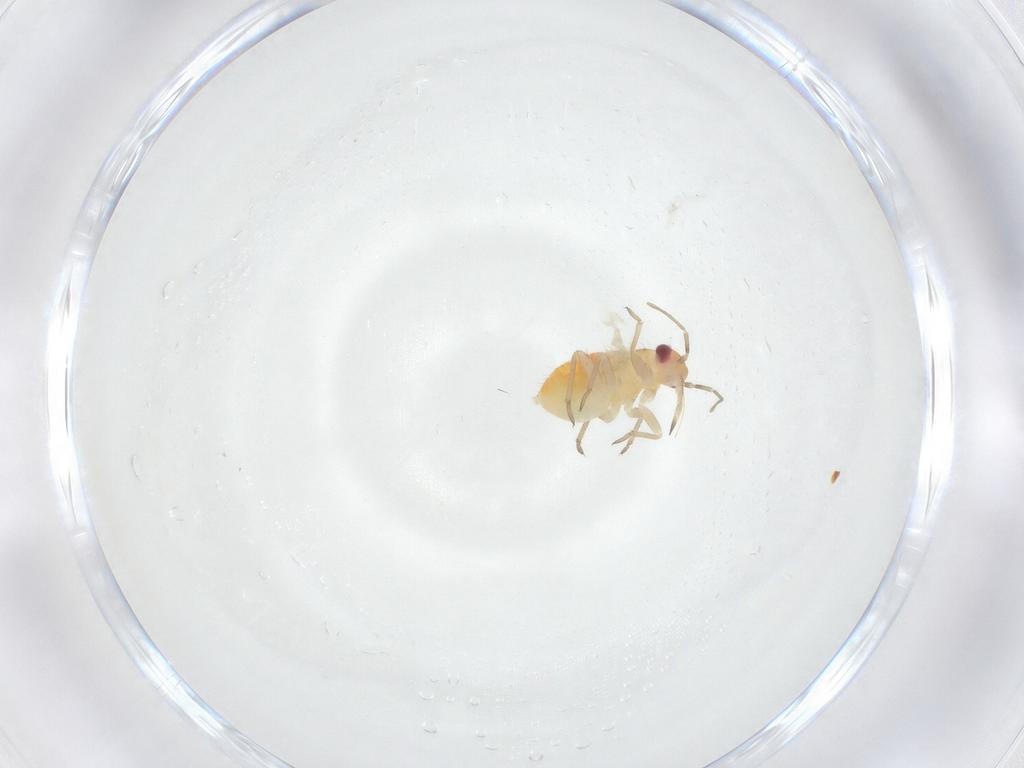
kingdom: Animalia
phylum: Arthropoda
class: Insecta
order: Hemiptera
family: Miridae
